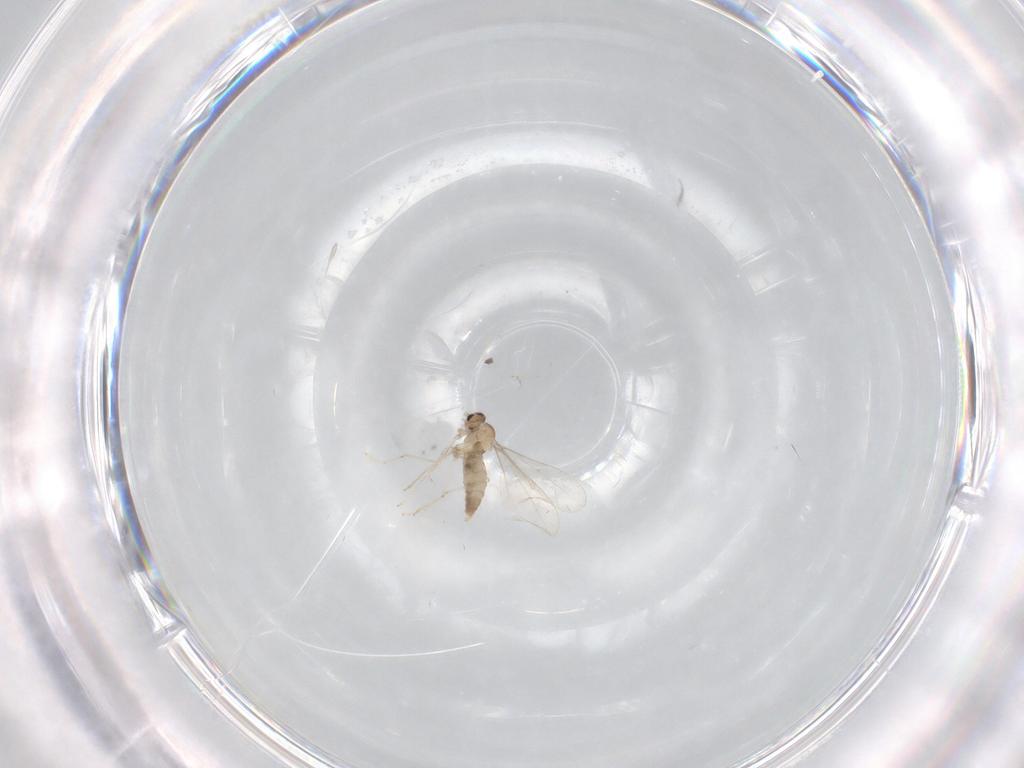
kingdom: Animalia
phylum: Arthropoda
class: Insecta
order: Diptera
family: Cecidomyiidae
